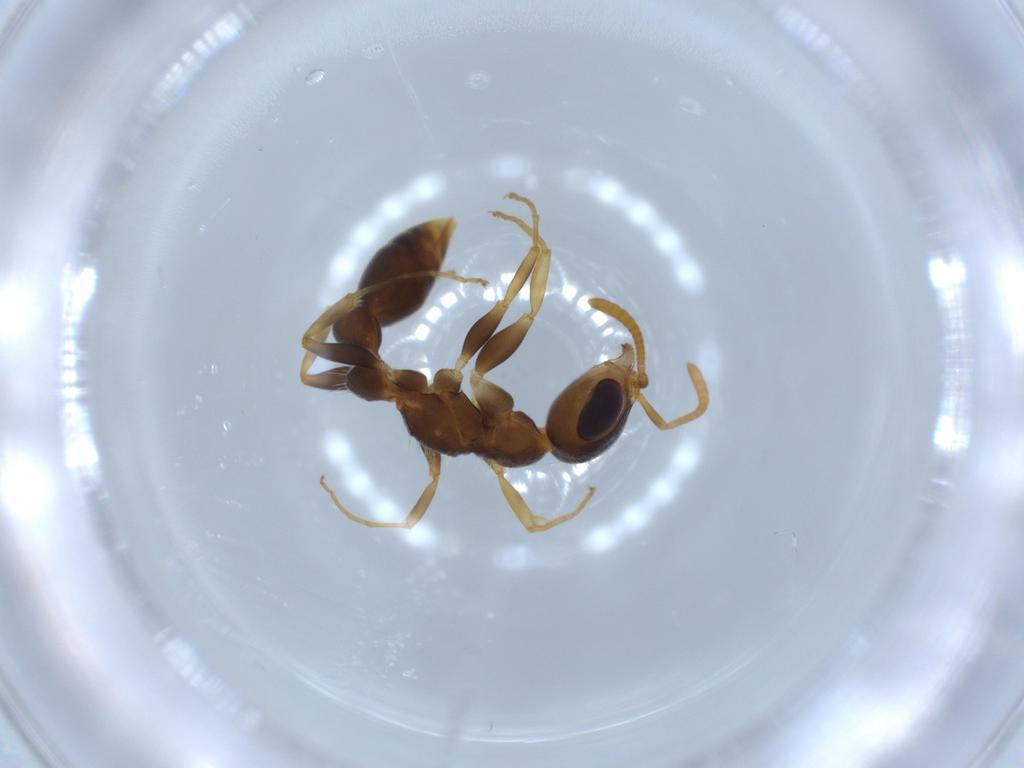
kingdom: Animalia
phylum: Arthropoda
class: Insecta
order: Hymenoptera
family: Formicidae
